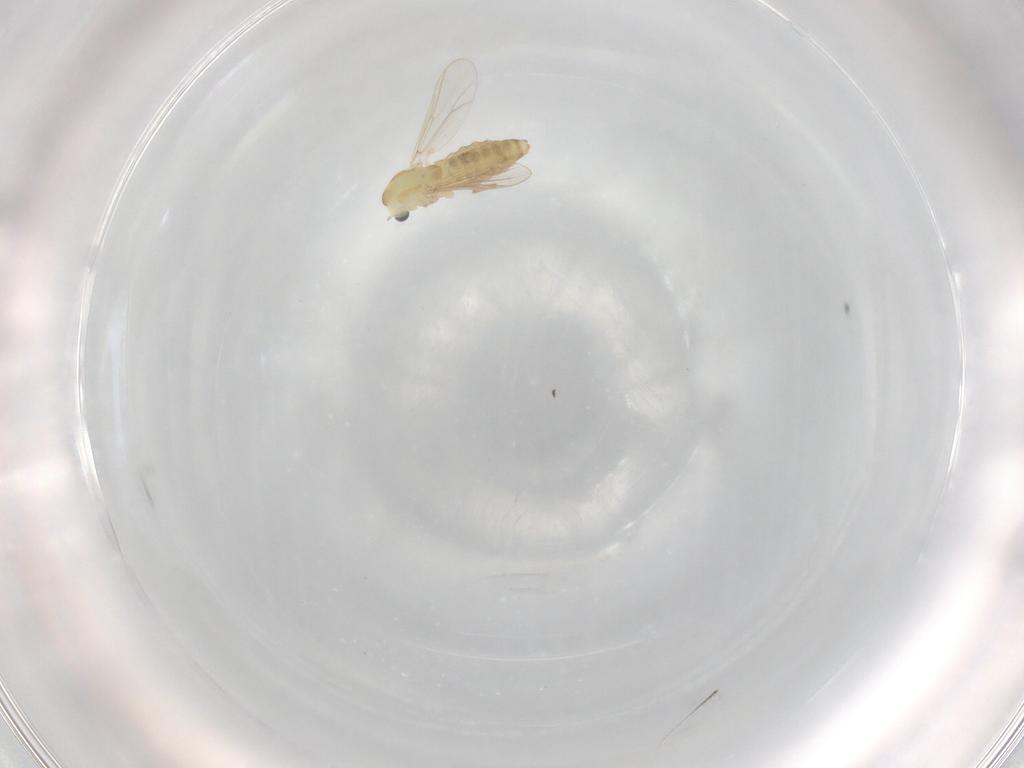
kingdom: Animalia
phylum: Arthropoda
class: Insecta
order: Diptera
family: Chironomidae
